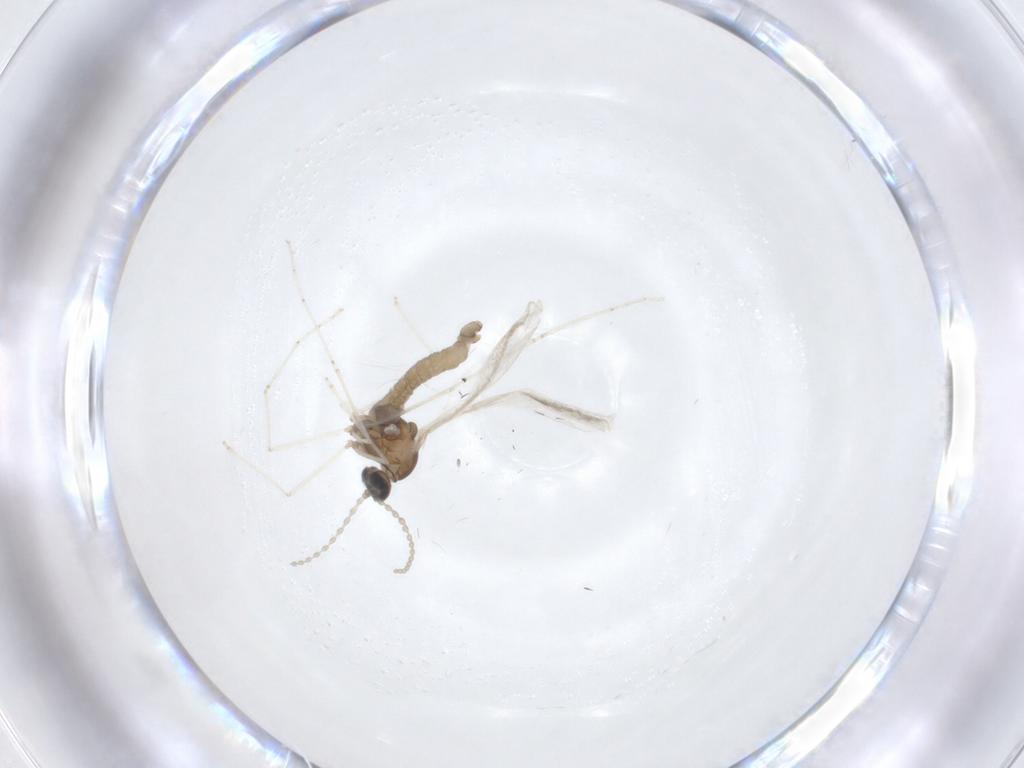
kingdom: Animalia
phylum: Arthropoda
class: Insecta
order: Diptera
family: Cecidomyiidae
